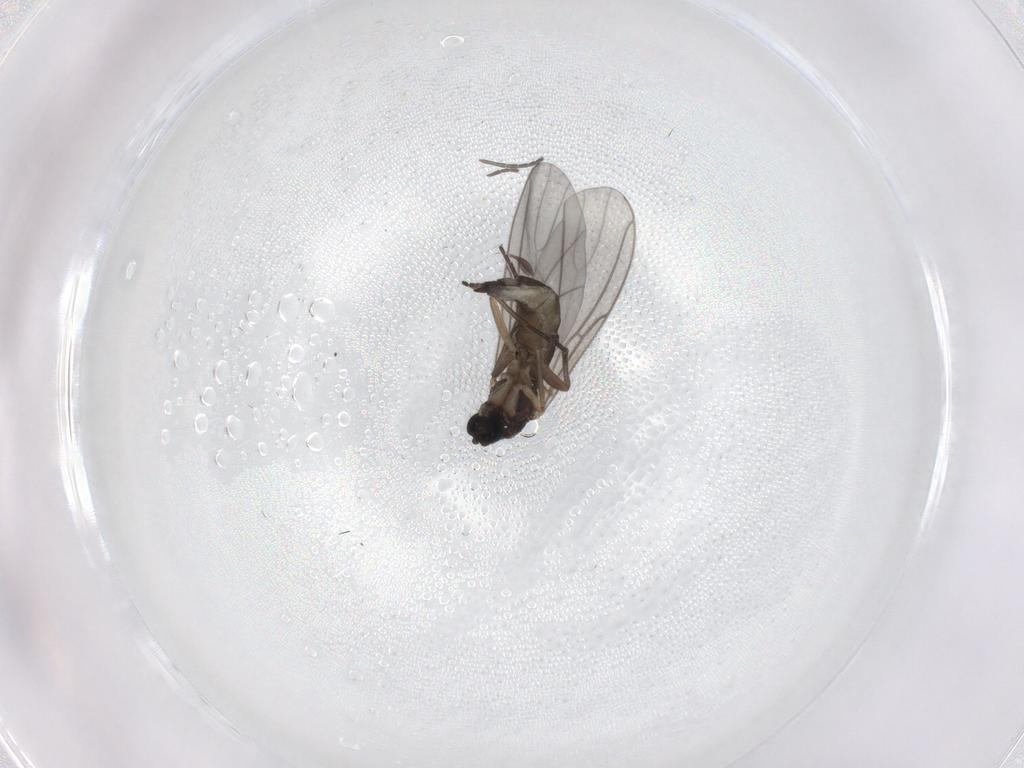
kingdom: Animalia
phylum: Arthropoda
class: Insecta
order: Diptera
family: Sciaridae
